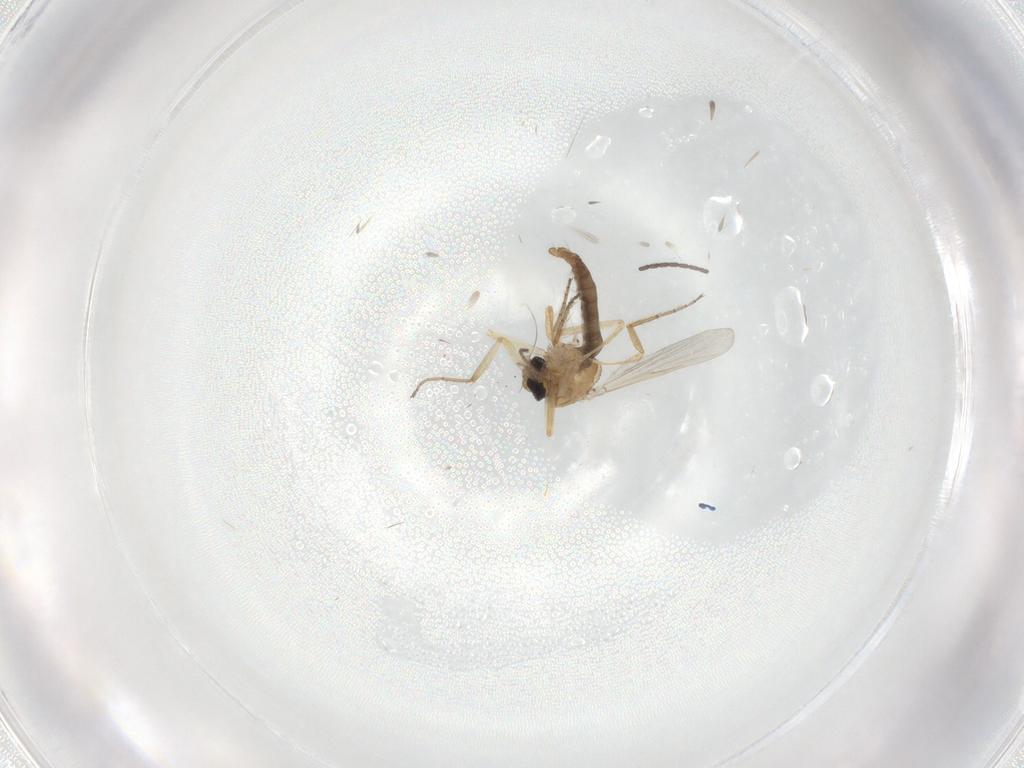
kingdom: Animalia
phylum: Arthropoda
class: Insecta
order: Diptera
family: Ceratopogonidae
